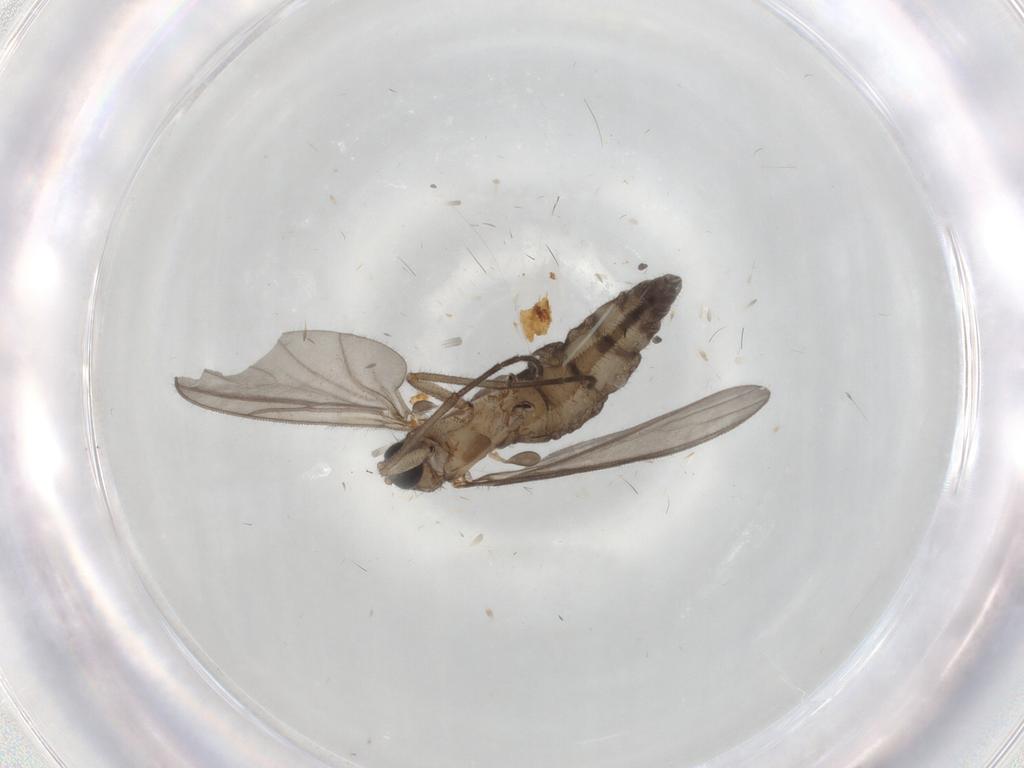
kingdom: Animalia
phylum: Arthropoda
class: Insecta
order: Diptera
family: Phoridae
